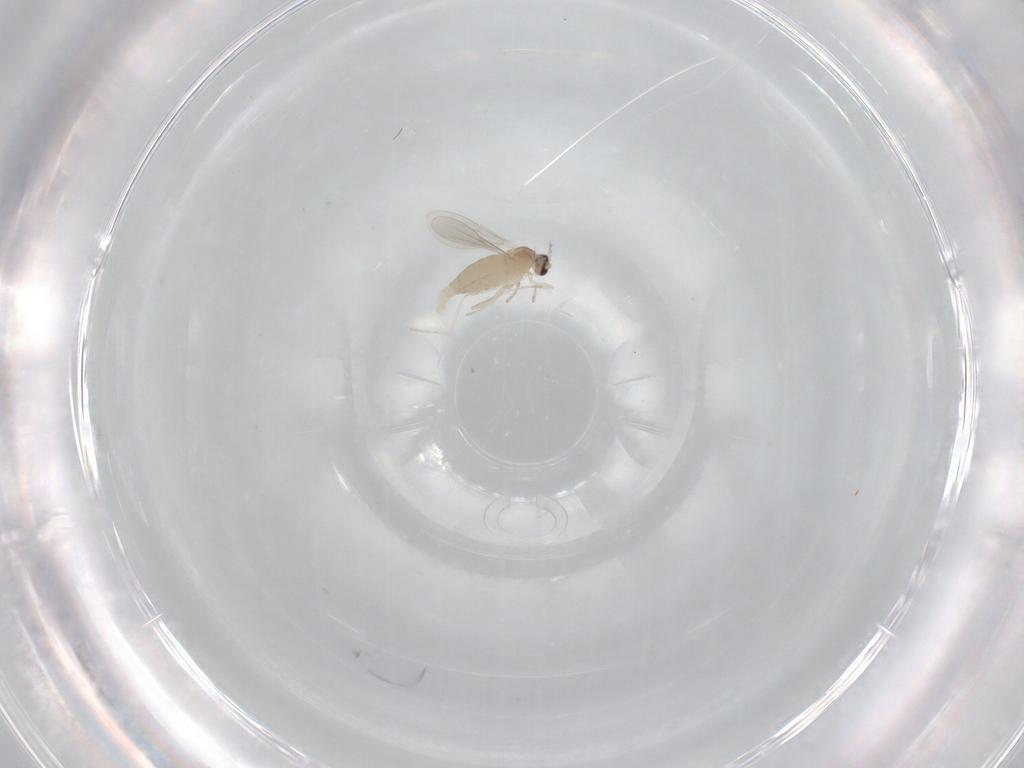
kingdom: Animalia
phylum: Arthropoda
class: Insecta
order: Diptera
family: Cecidomyiidae
